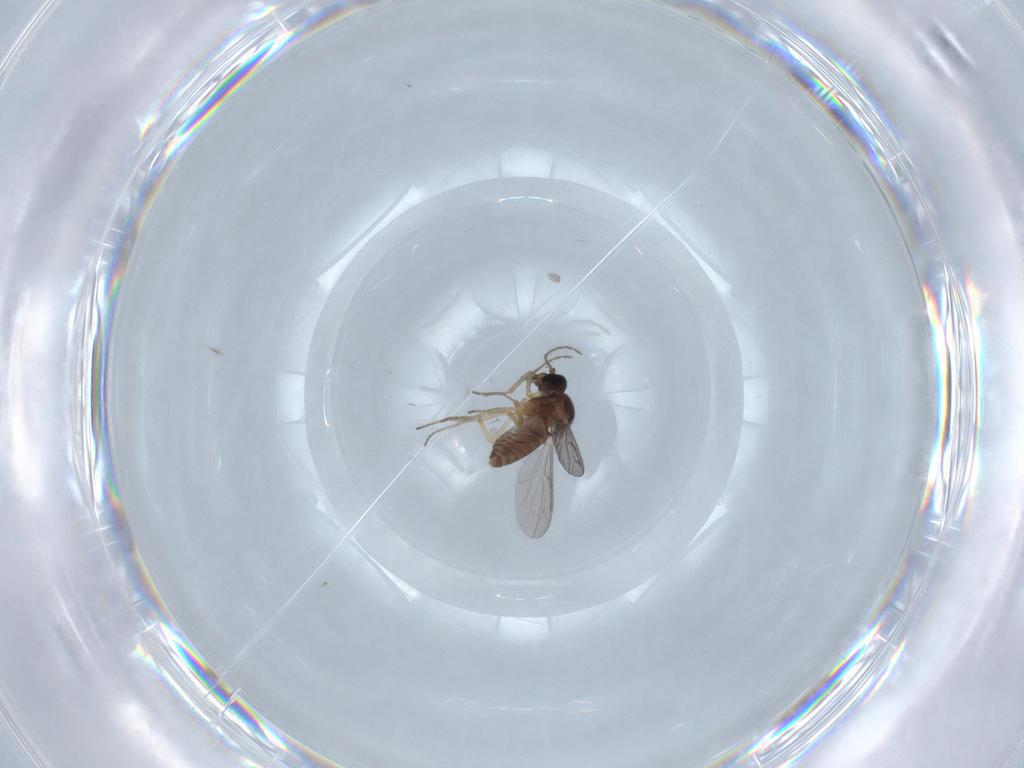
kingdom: Animalia
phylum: Arthropoda
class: Insecta
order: Diptera
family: Ceratopogonidae
